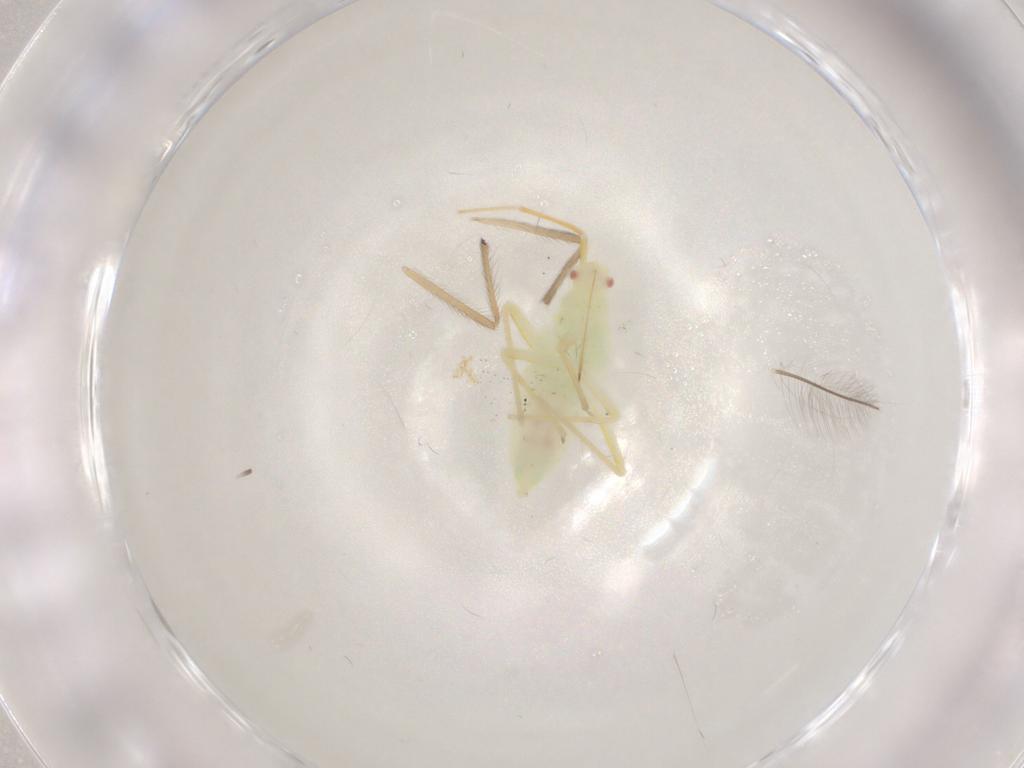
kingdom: Animalia
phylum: Arthropoda
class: Insecta
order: Hemiptera
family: Miridae
